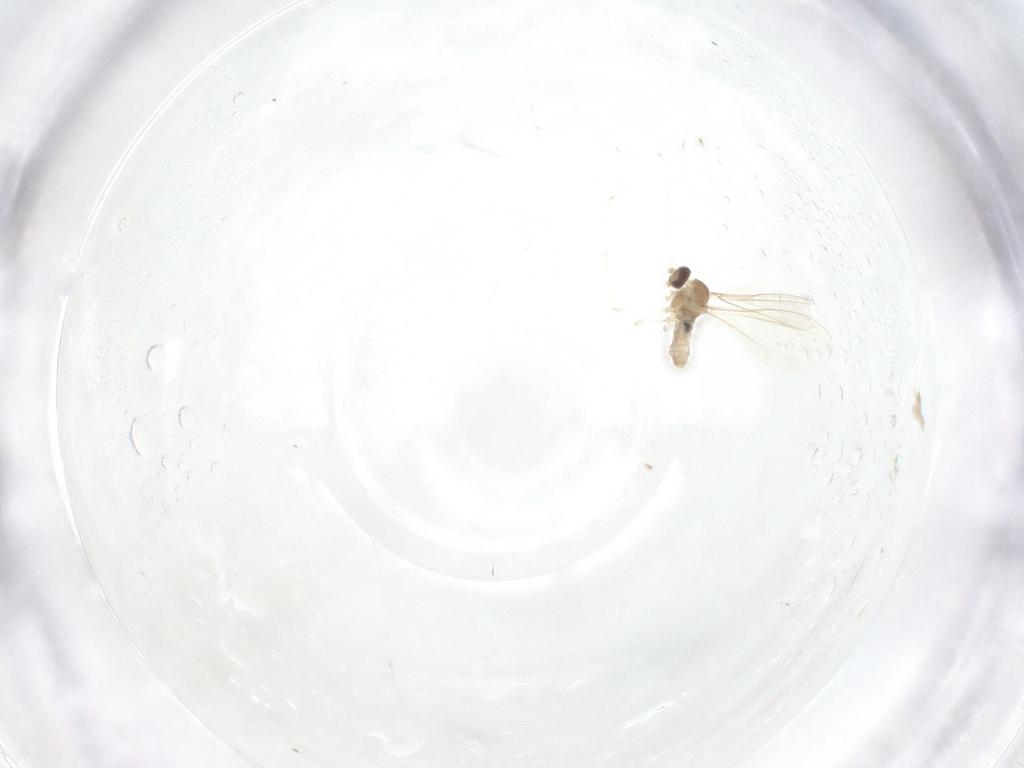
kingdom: Animalia
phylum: Arthropoda
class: Insecta
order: Diptera
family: Cecidomyiidae
